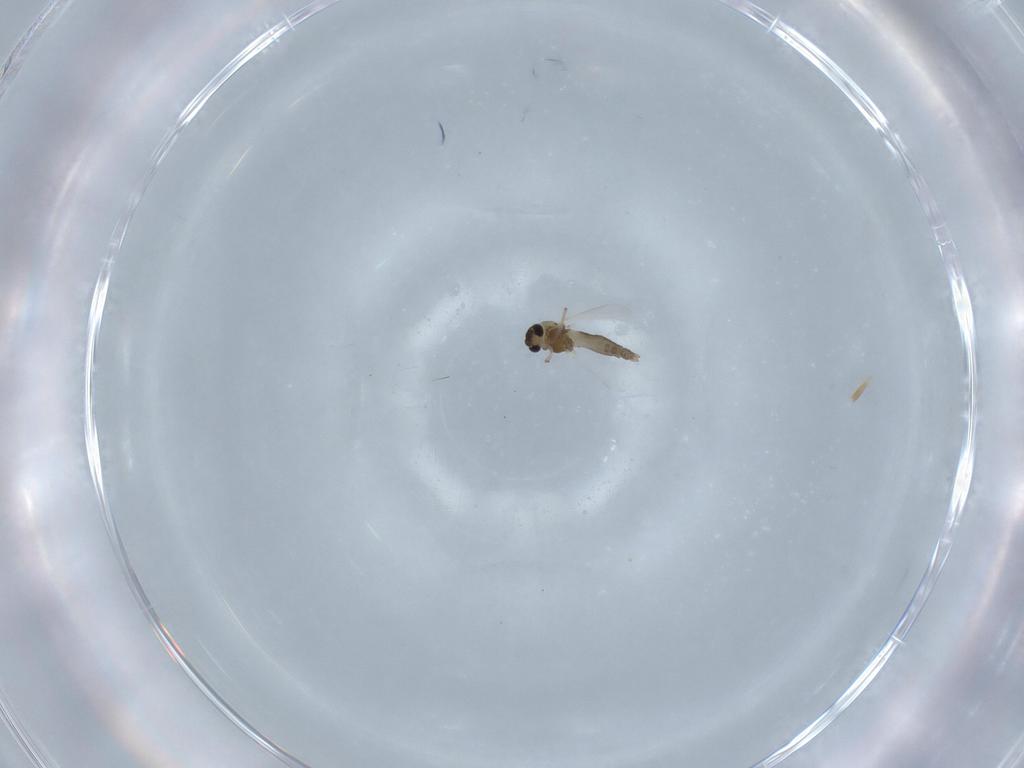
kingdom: Animalia
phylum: Arthropoda
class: Insecta
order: Diptera
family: Chironomidae
